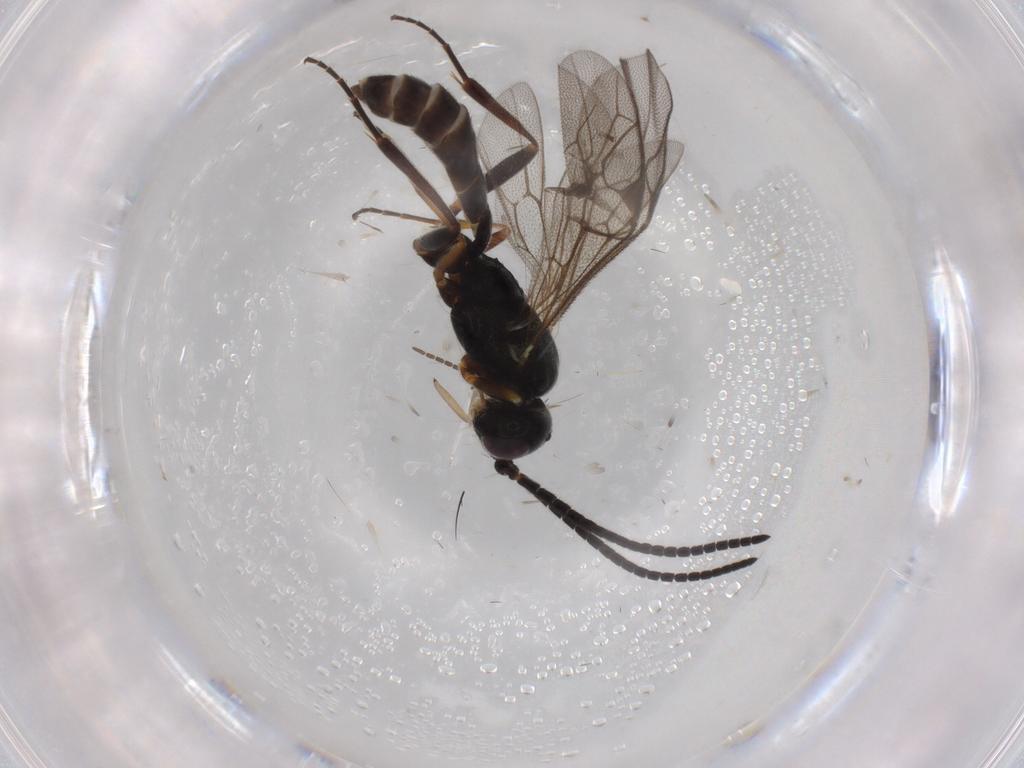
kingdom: Animalia
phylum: Arthropoda
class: Insecta
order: Hymenoptera
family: Ichneumonidae
